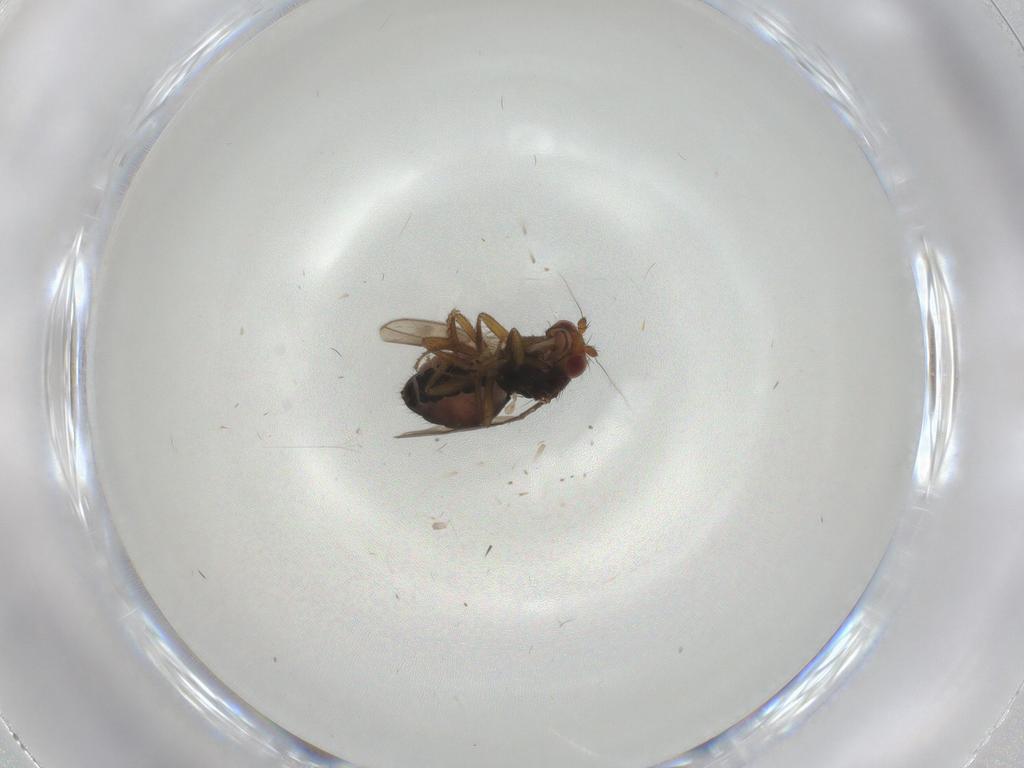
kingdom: Animalia
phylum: Arthropoda
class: Insecta
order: Diptera
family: Sphaeroceridae
